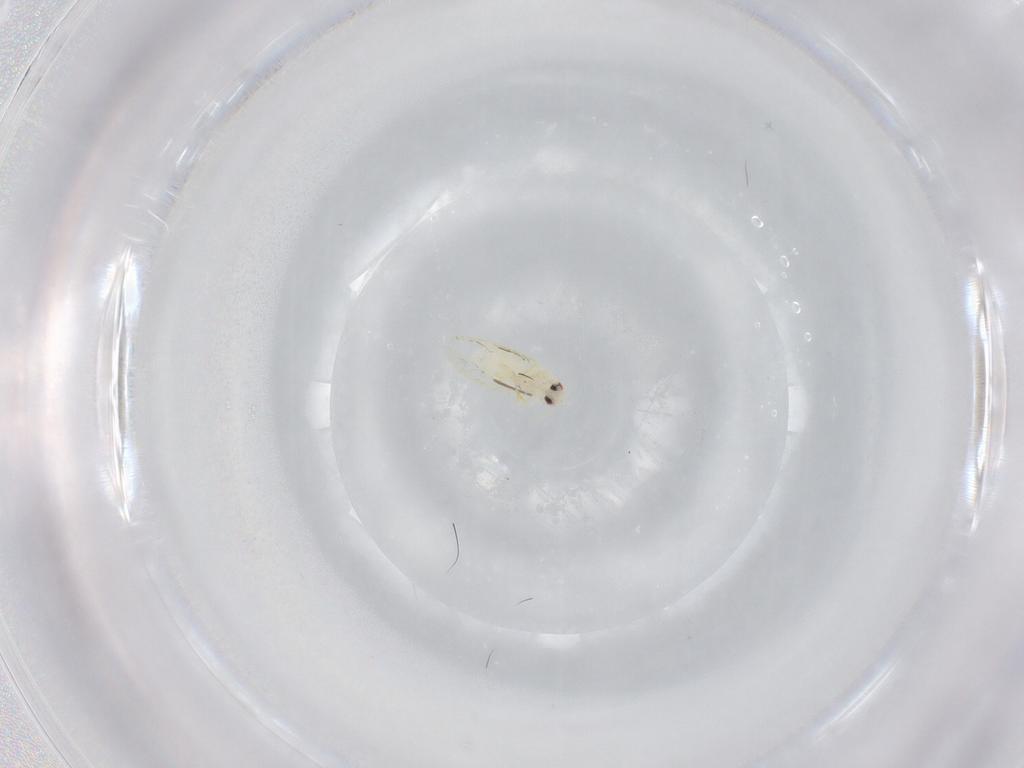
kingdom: Animalia
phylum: Arthropoda
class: Insecta
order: Hemiptera
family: Aleyrodidae
